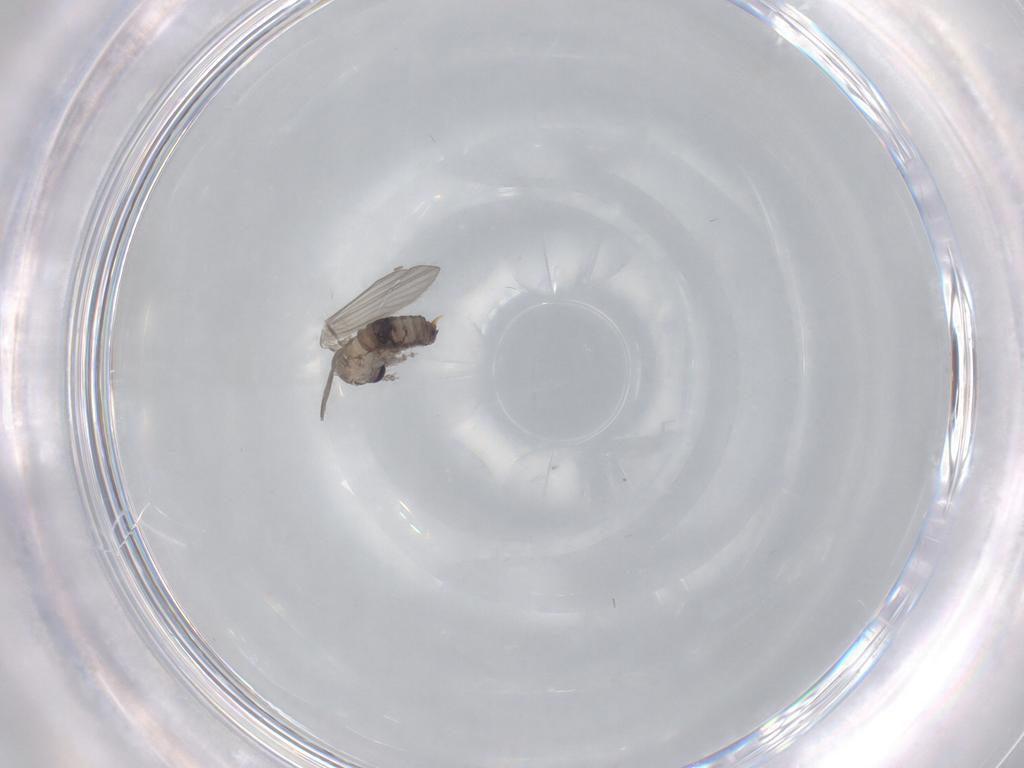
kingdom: Animalia
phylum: Arthropoda
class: Insecta
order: Diptera
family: Psychodidae
